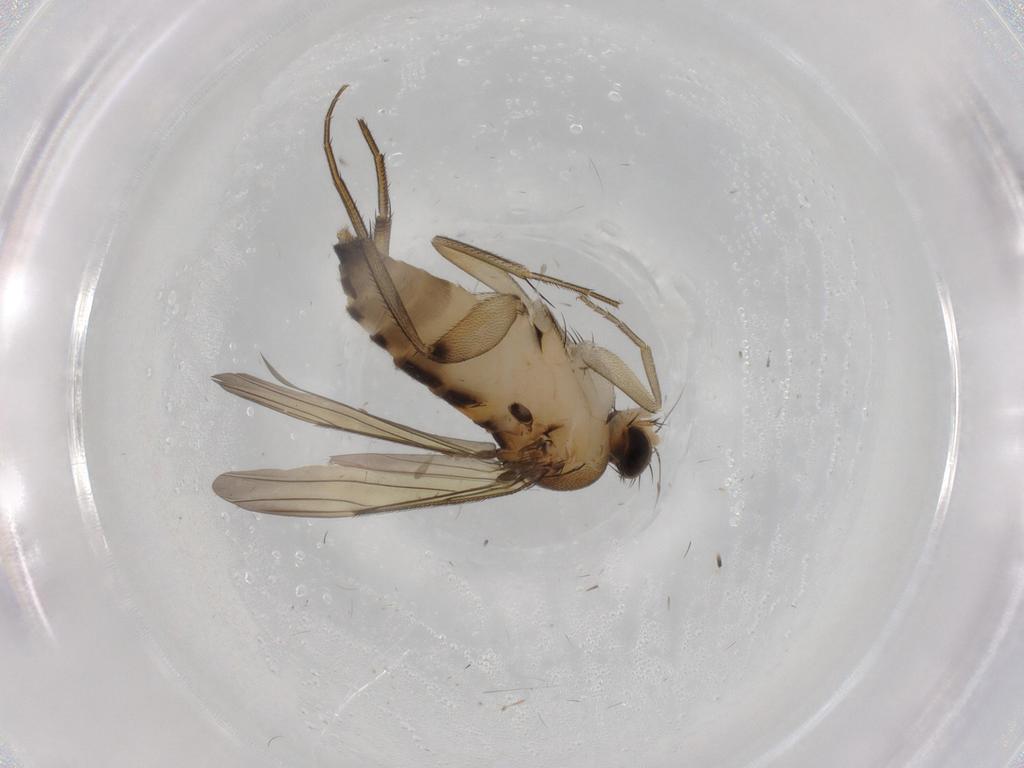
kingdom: Animalia
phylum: Arthropoda
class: Insecta
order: Diptera
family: Phoridae
